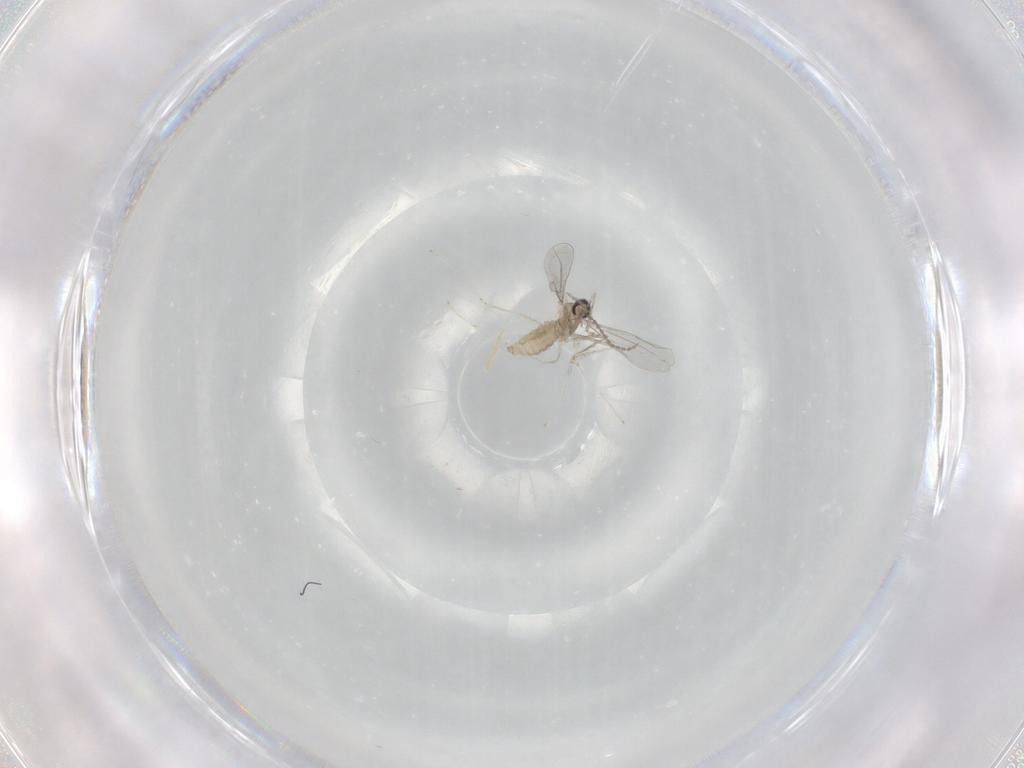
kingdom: Animalia
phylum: Arthropoda
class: Insecta
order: Diptera
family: Cecidomyiidae
